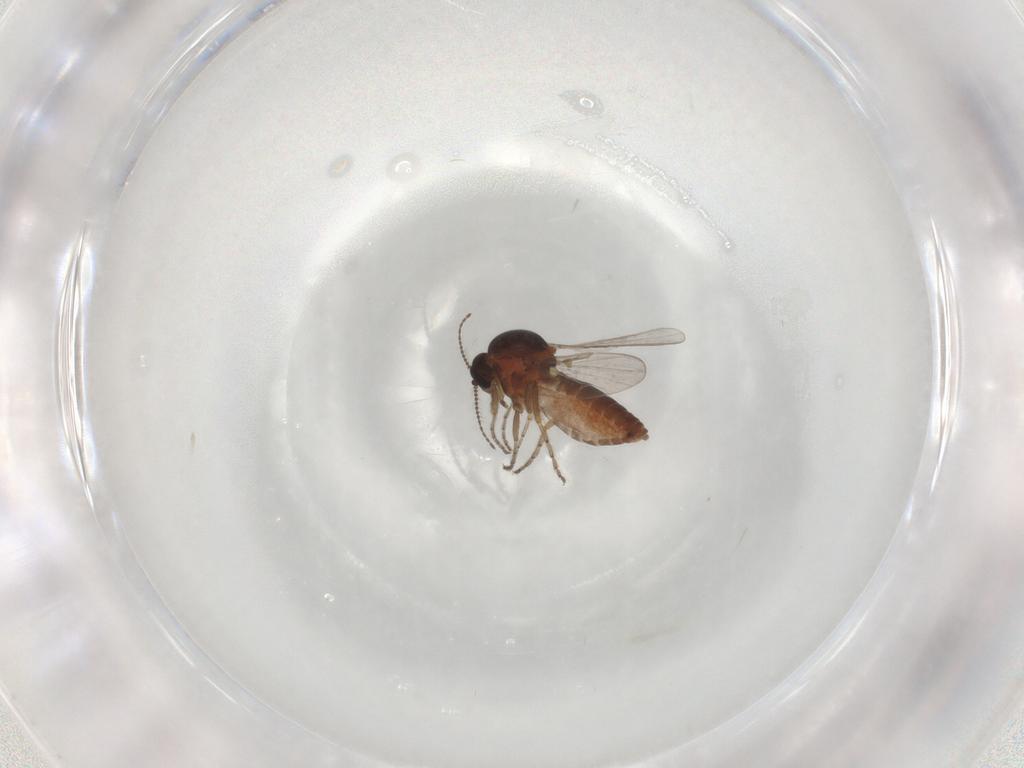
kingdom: Animalia
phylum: Arthropoda
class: Insecta
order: Diptera
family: Ceratopogonidae
